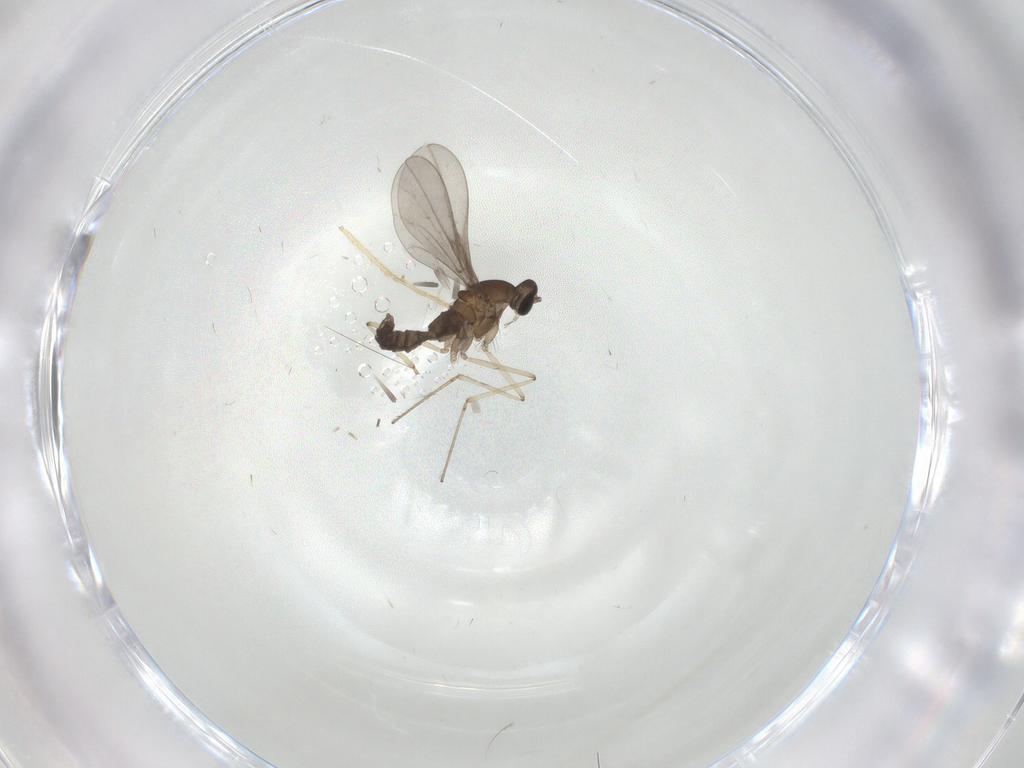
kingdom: Animalia
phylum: Arthropoda
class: Insecta
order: Diptera
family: Cecidomyiidae
